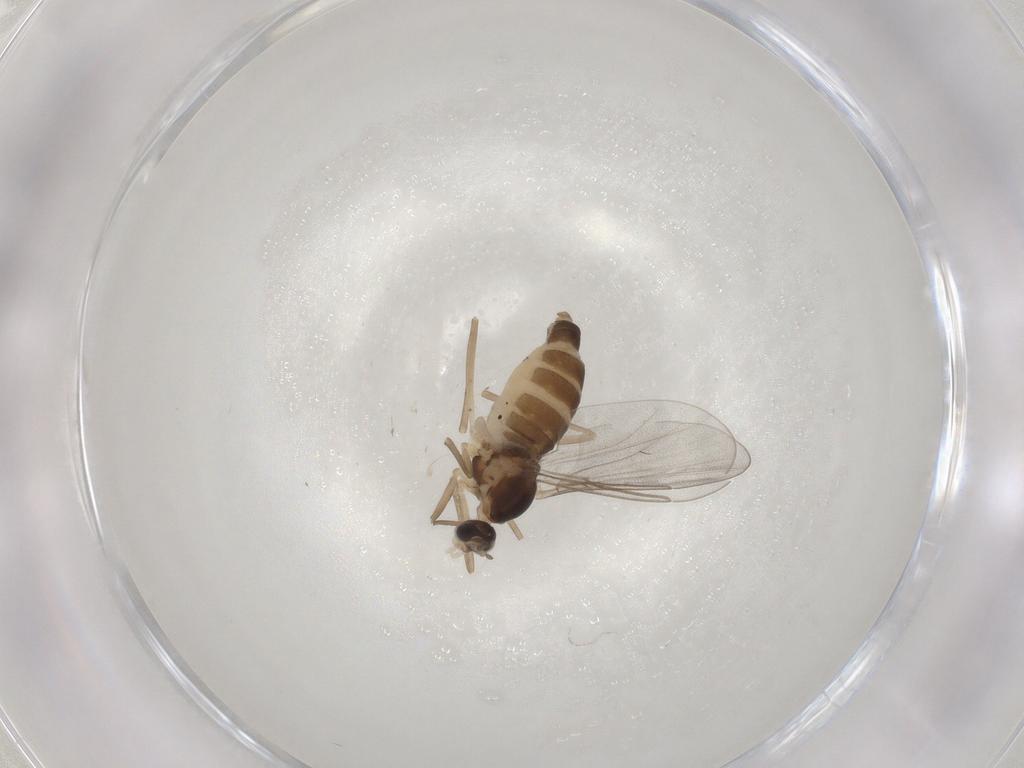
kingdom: Animalia
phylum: Arthropoda
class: Insecta
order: Diptera
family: Cecidomyiidae
